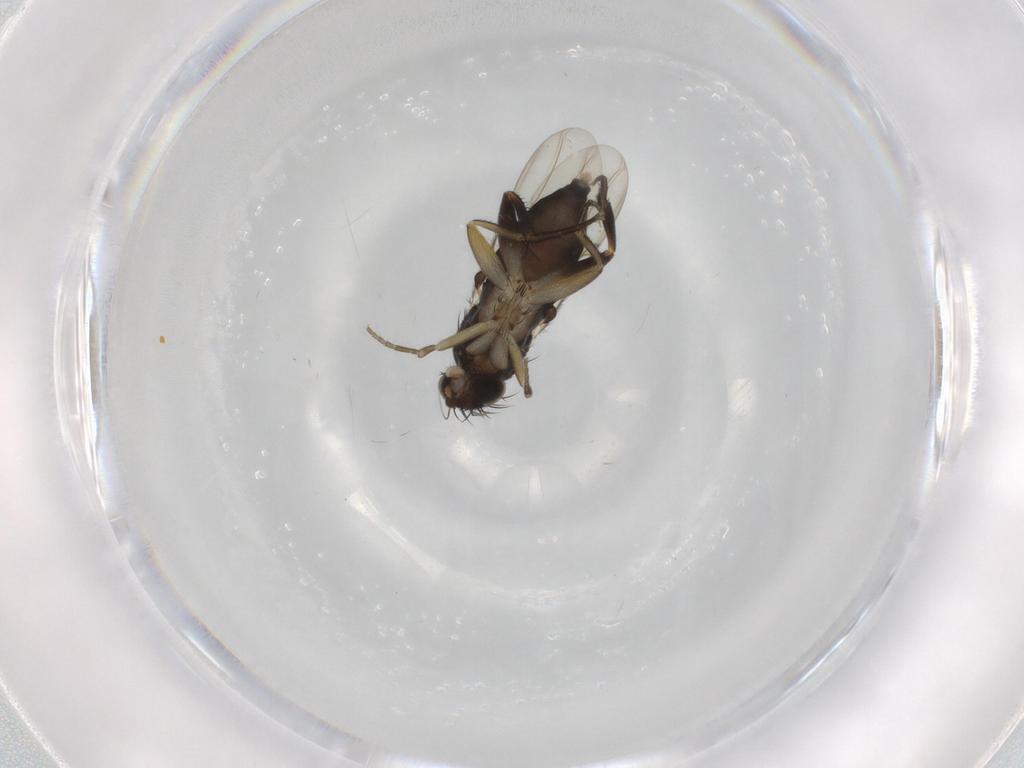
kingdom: Animalia
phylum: Arthropoda
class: Insecta
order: Diptera
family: Phoridae
